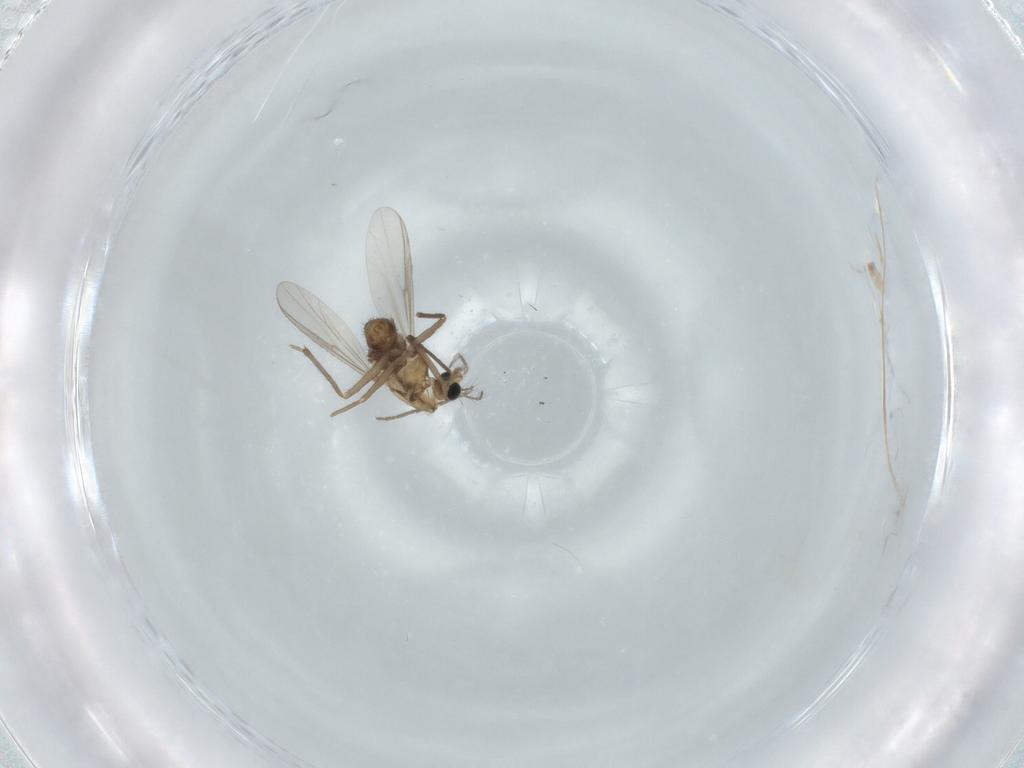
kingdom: Animalia
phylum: Arthropoda
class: Insecta
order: Diptera
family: Chironomidae
